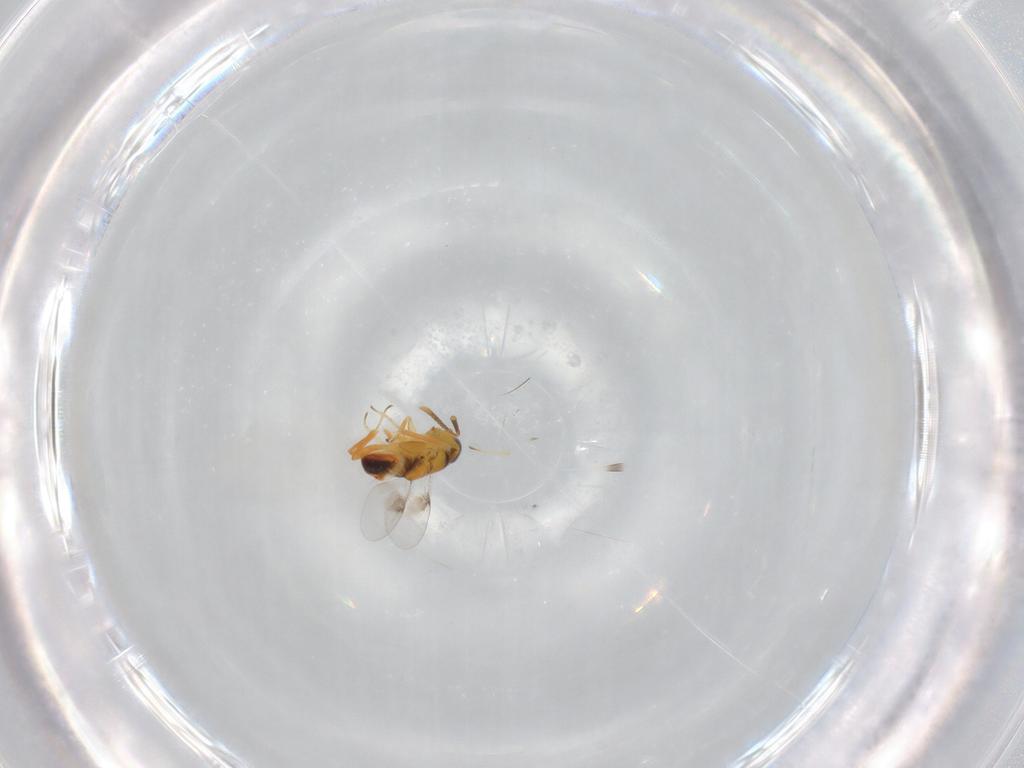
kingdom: Animalia
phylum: Arthropoda
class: Insecta
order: Hymenoptera
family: Encyrtidae
